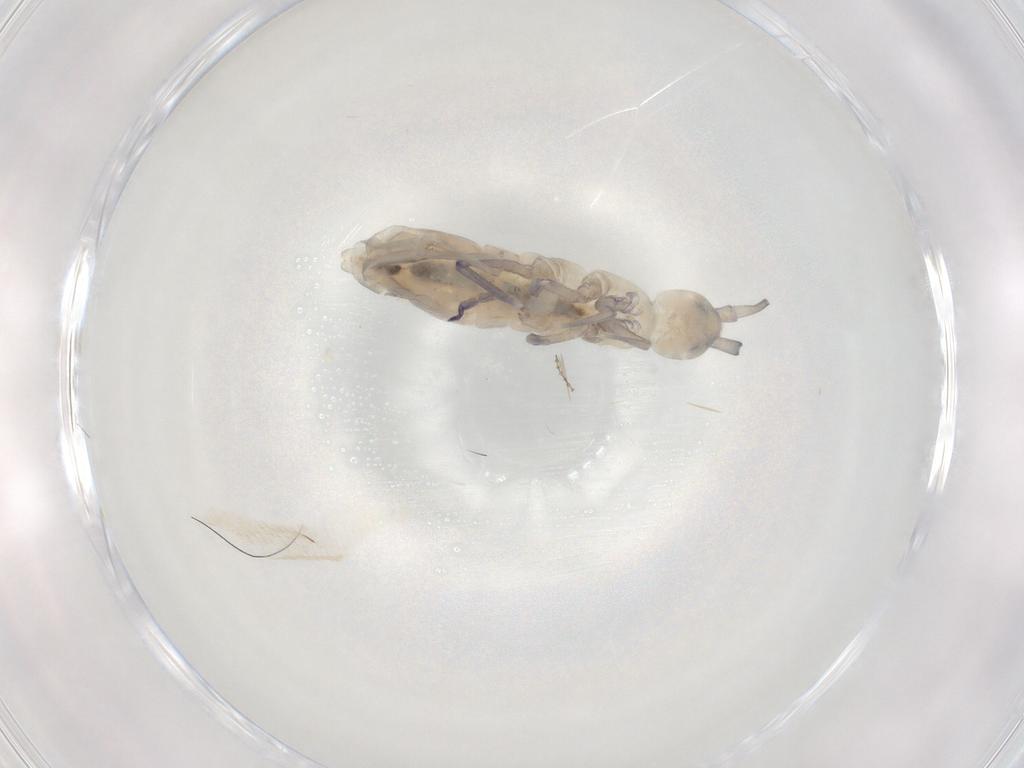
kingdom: Animalia
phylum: Arthropoda
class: Collembola
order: Entomobryomorpha
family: Tomoceridae
